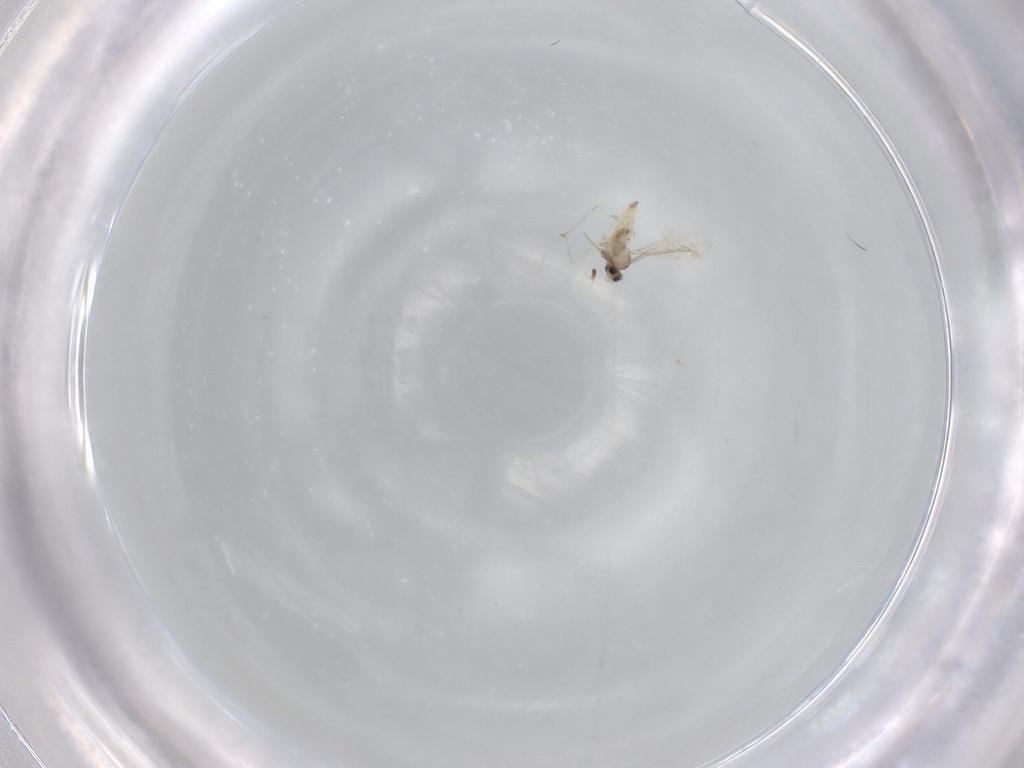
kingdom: Animalia
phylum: Arthropoda
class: Insecta
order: Diptera
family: Cecidomyiidae
